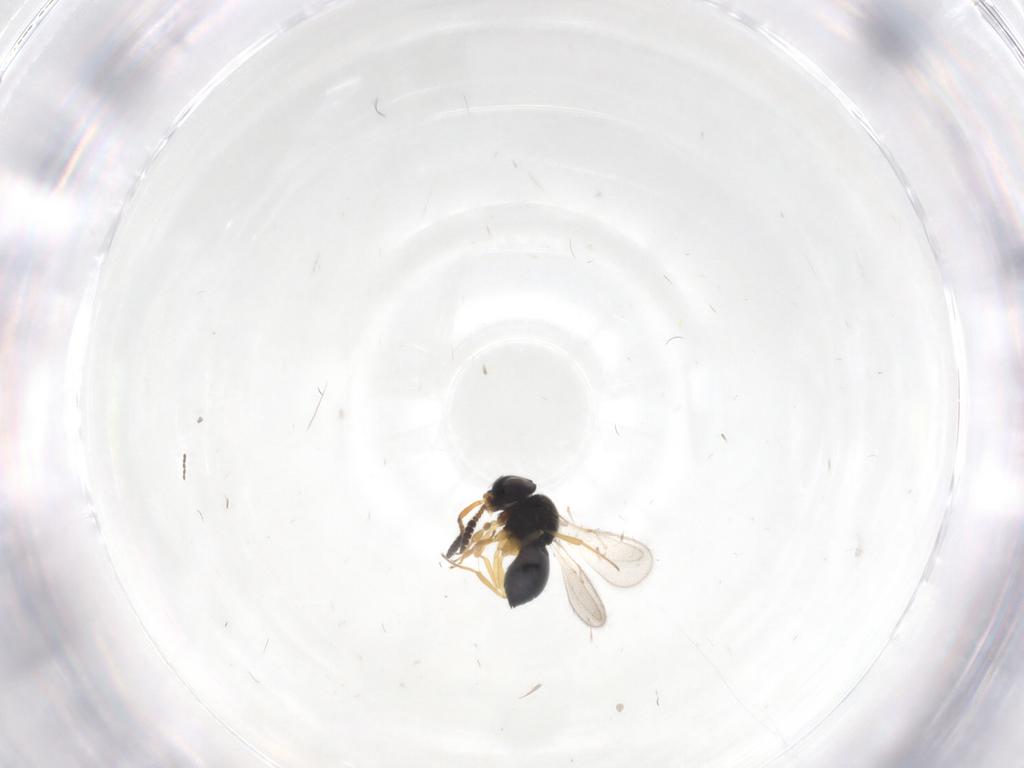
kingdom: Animalia
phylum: Arthropoda
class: Insecta
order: Hymenoptera
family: Scelionidae
